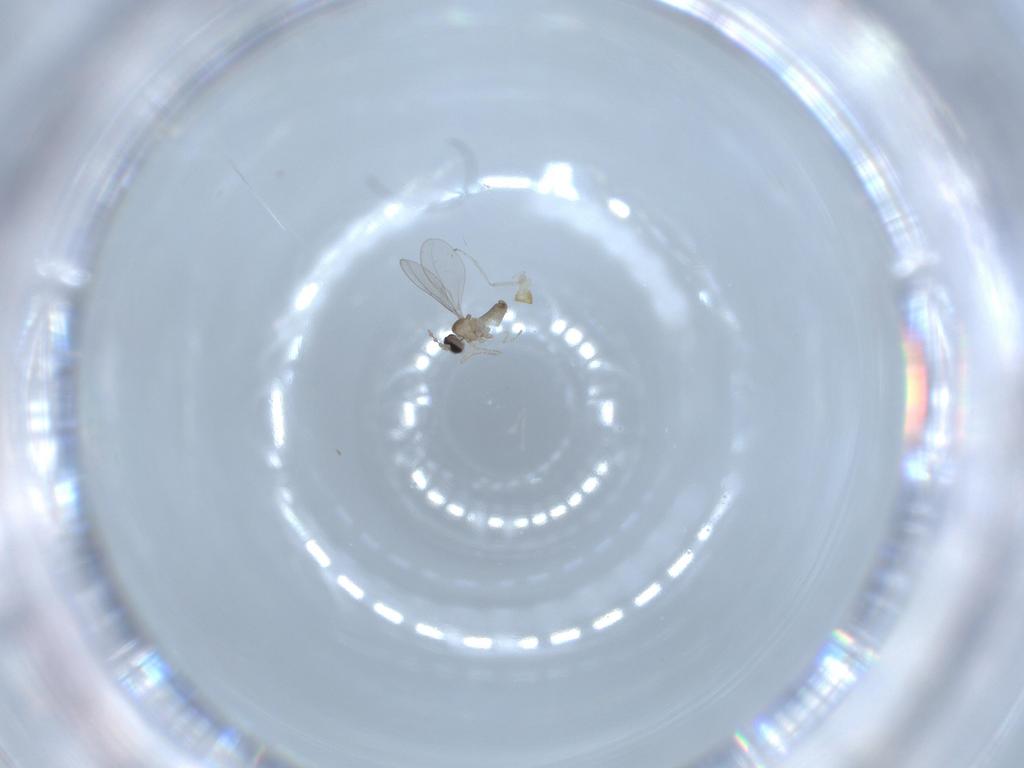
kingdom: Animalia
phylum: Arthropoda
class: Insecta
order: Diptera
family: Cecidomyiidae
